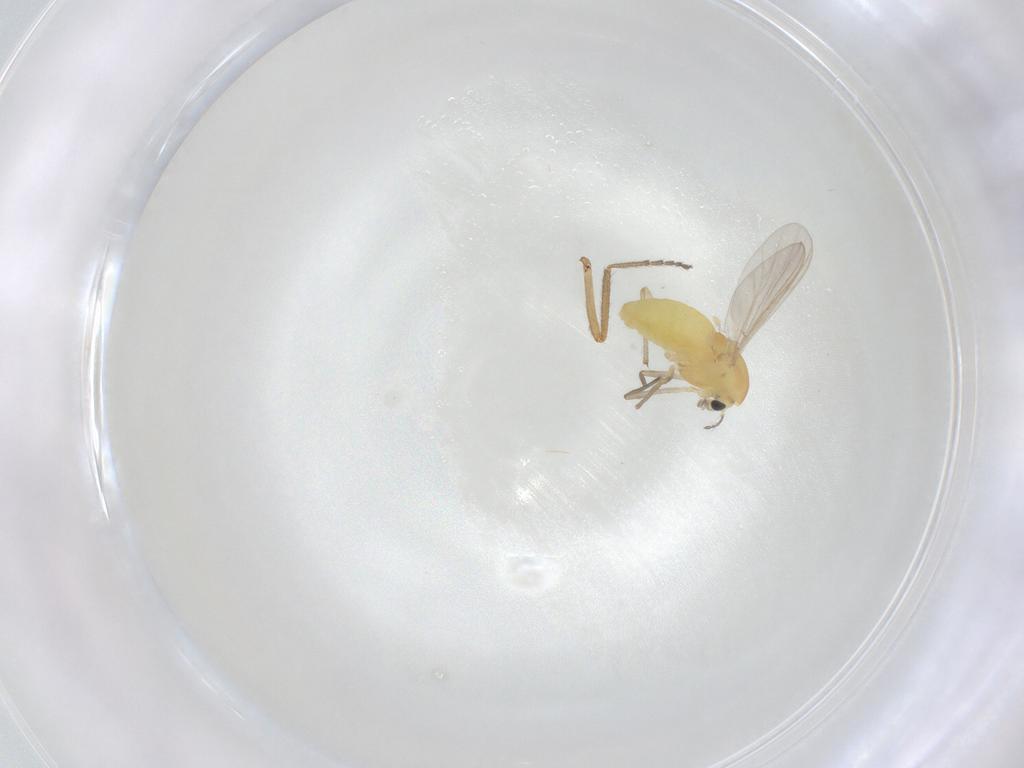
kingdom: Animalia
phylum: Arthropoda
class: Insecta
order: Diptera
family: Chironomidae
